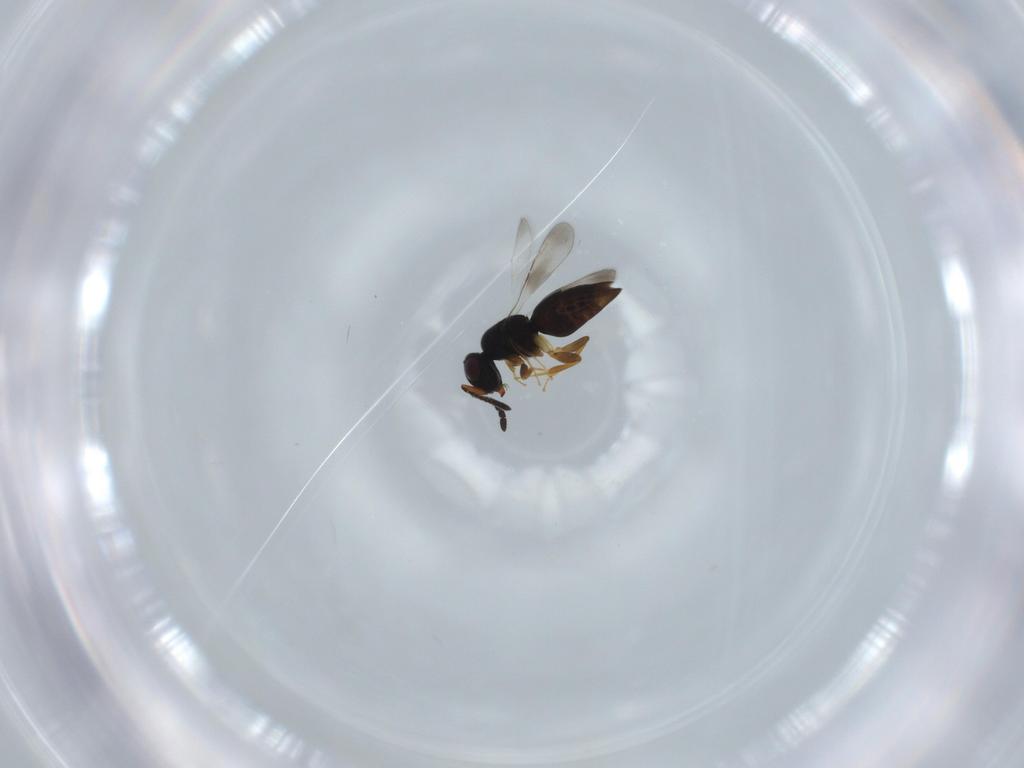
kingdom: Animalia
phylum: Arthropoda
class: Insecta
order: Hymenoptera
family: Ceraphronidae
